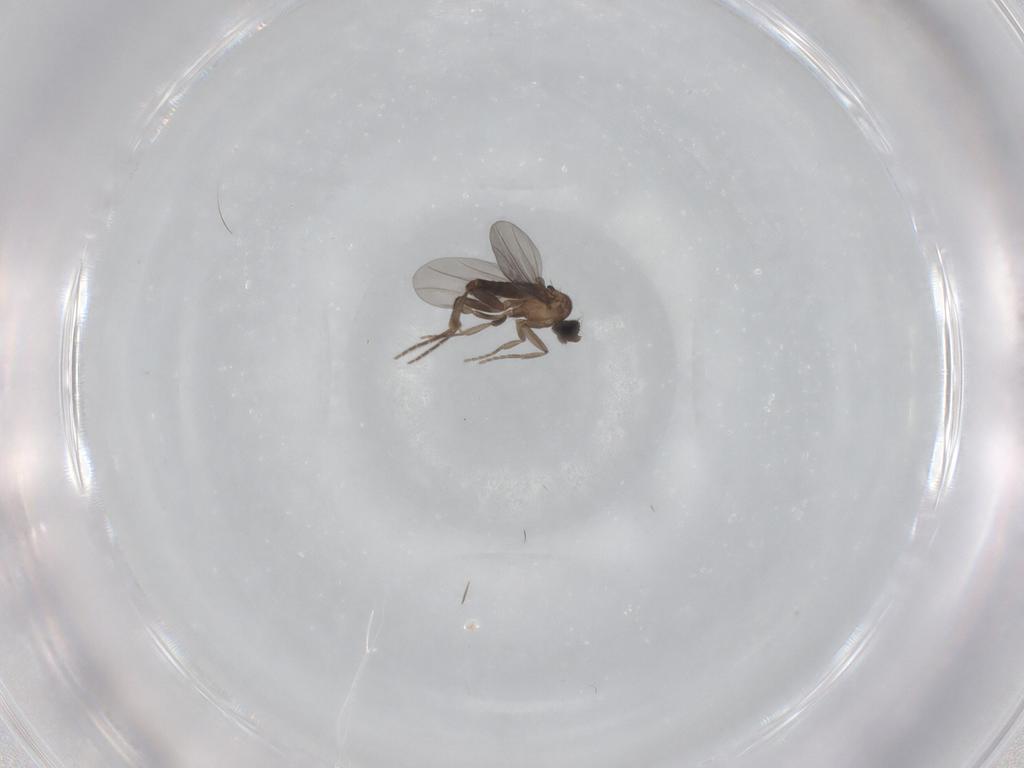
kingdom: Animalia
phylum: Arthropoda
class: Insecta
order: Diptera
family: Phoridae
